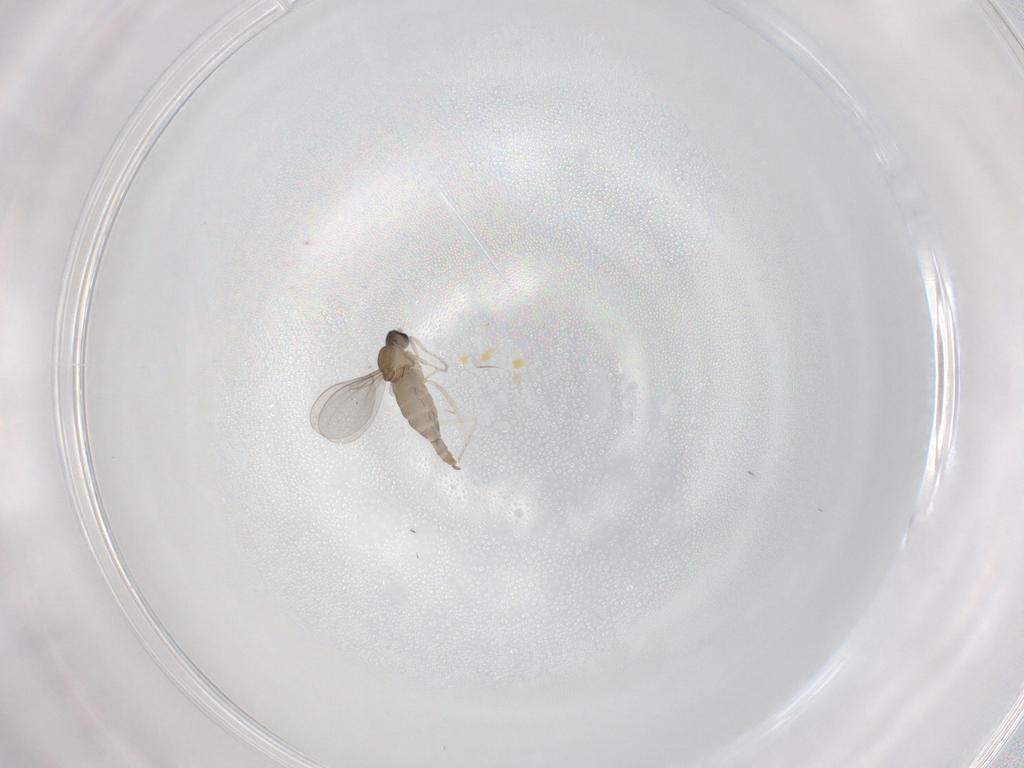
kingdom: Animalia
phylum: Arthropoda
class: Insecta
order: Diptera
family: Cecidomyiidae
